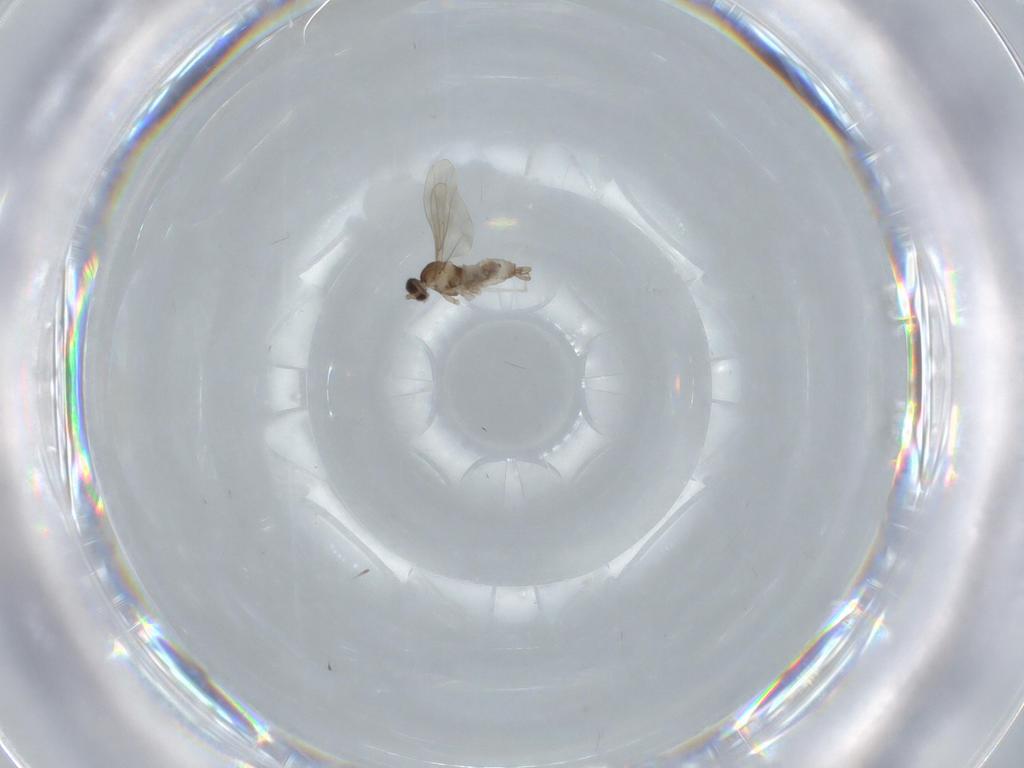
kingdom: Animalia
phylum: Arthropoda
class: Insecta
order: Diptera
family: Cecidomyiidae
